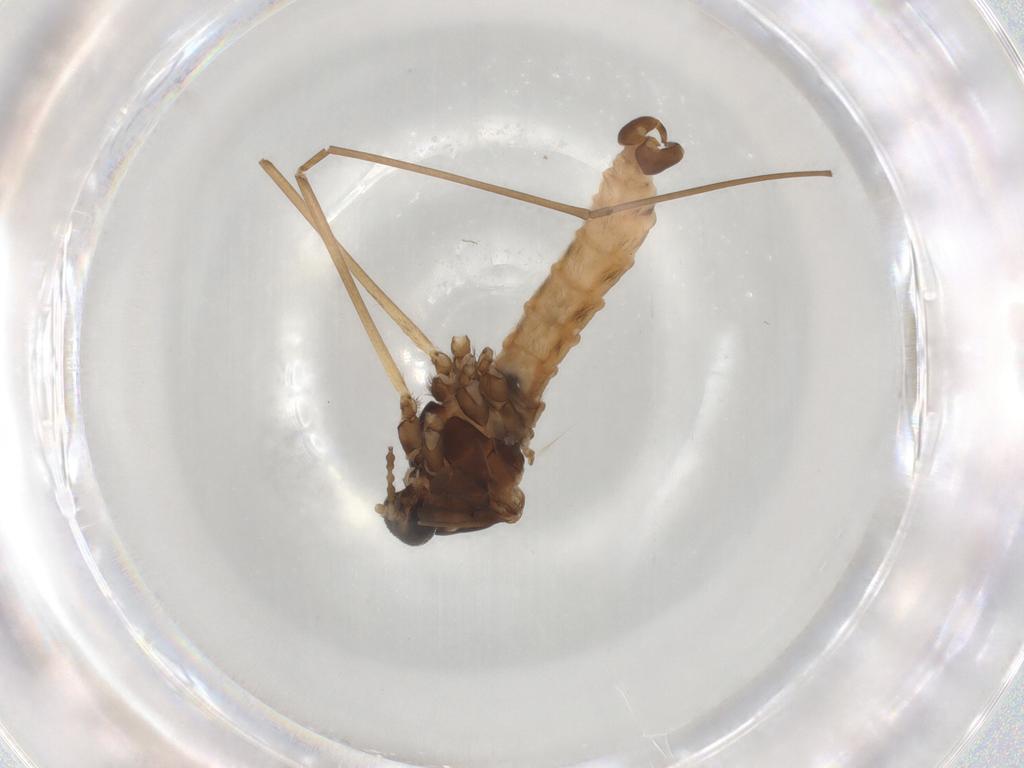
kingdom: Animalia
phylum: Arthropoda
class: Insecta
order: Diptera
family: Cecidomyiidae
